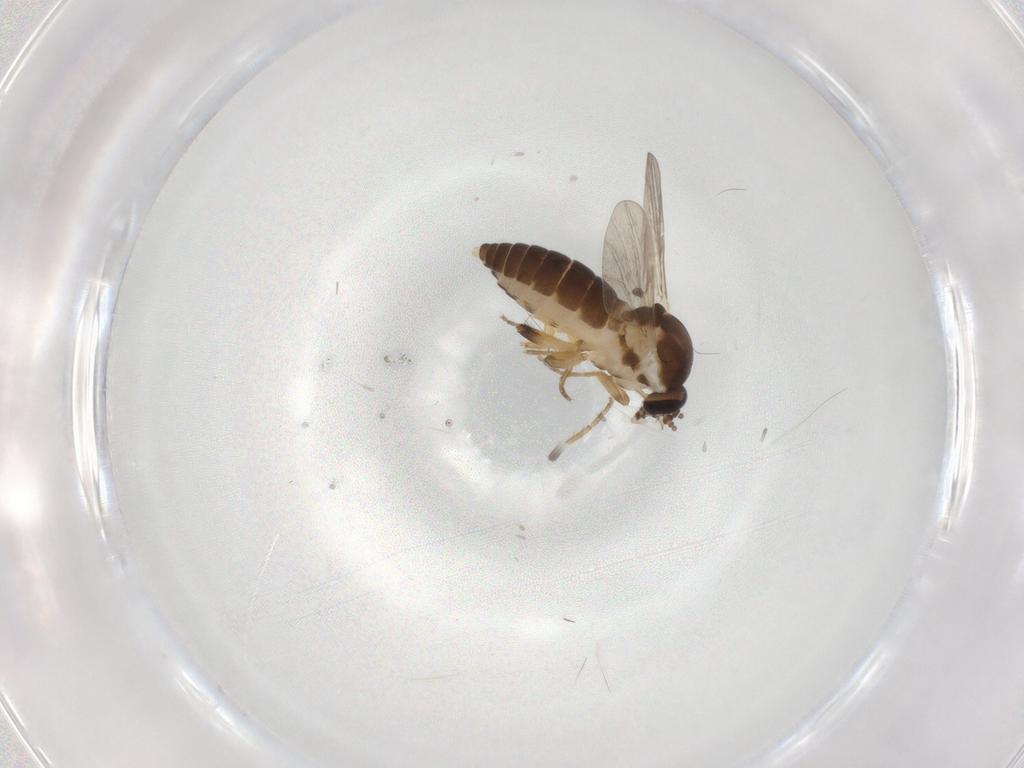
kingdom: Animalia
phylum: Arthropoda
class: Insecta
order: Diptera
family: Ceratopogonidae
